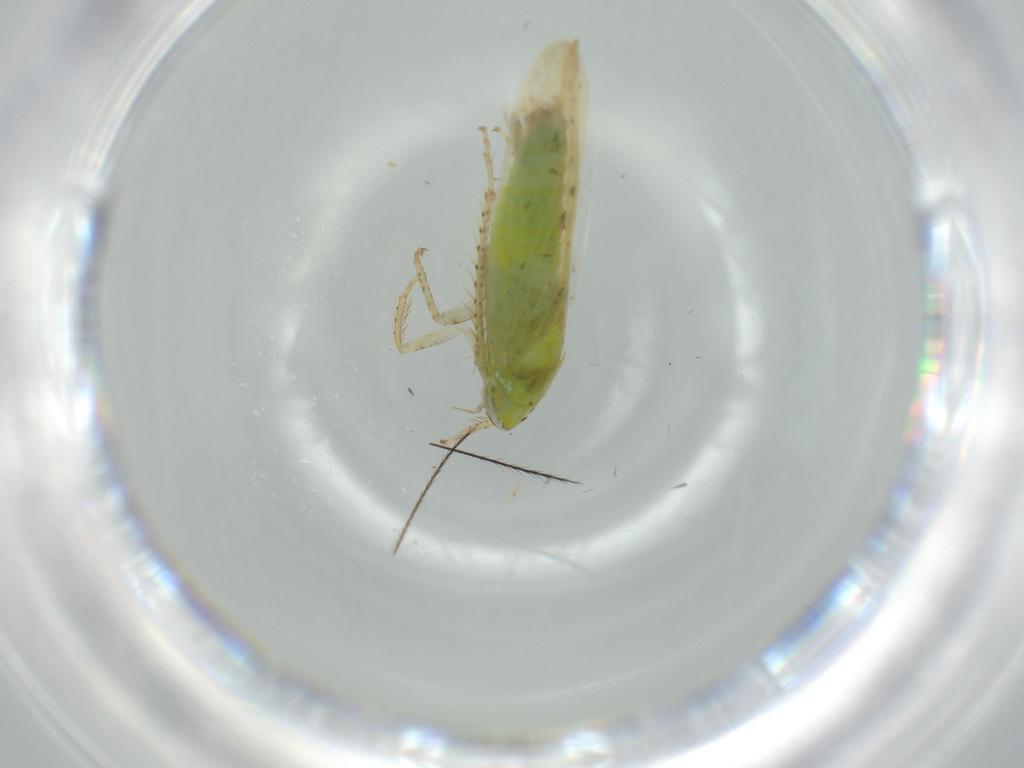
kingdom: Animalia
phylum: Arthropoda
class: Insecta
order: Hemiptera
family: Cicadellidae
